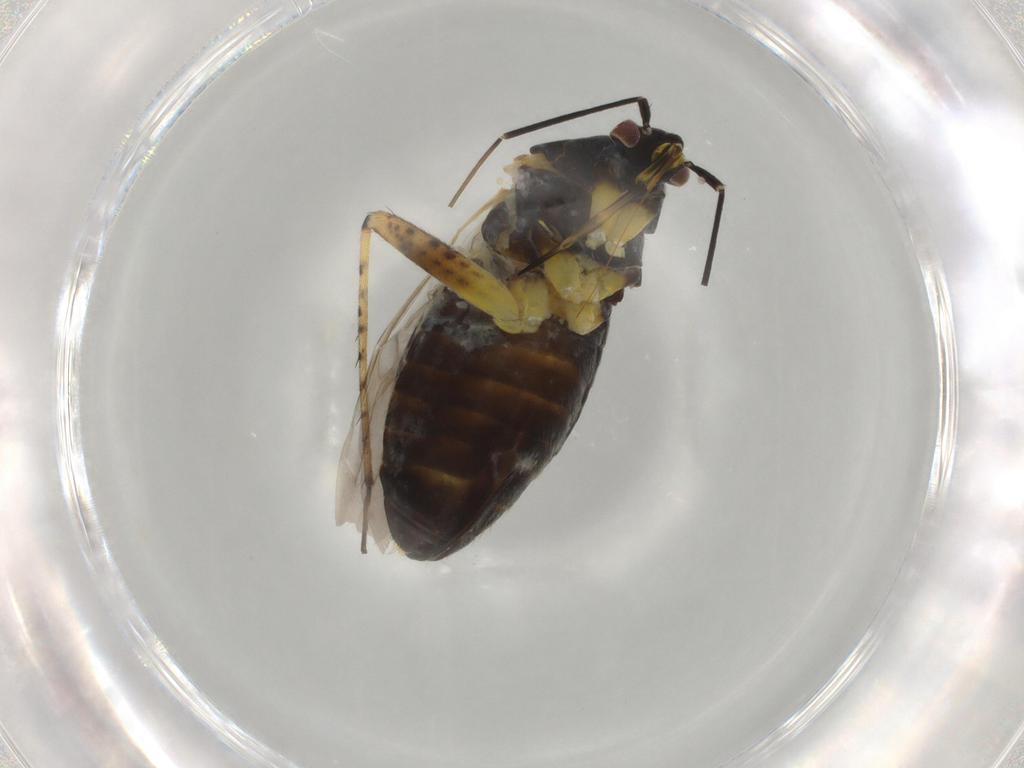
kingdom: Animalia
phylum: Arthropoda
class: Insecta
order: Hemiptera
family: Miridae
